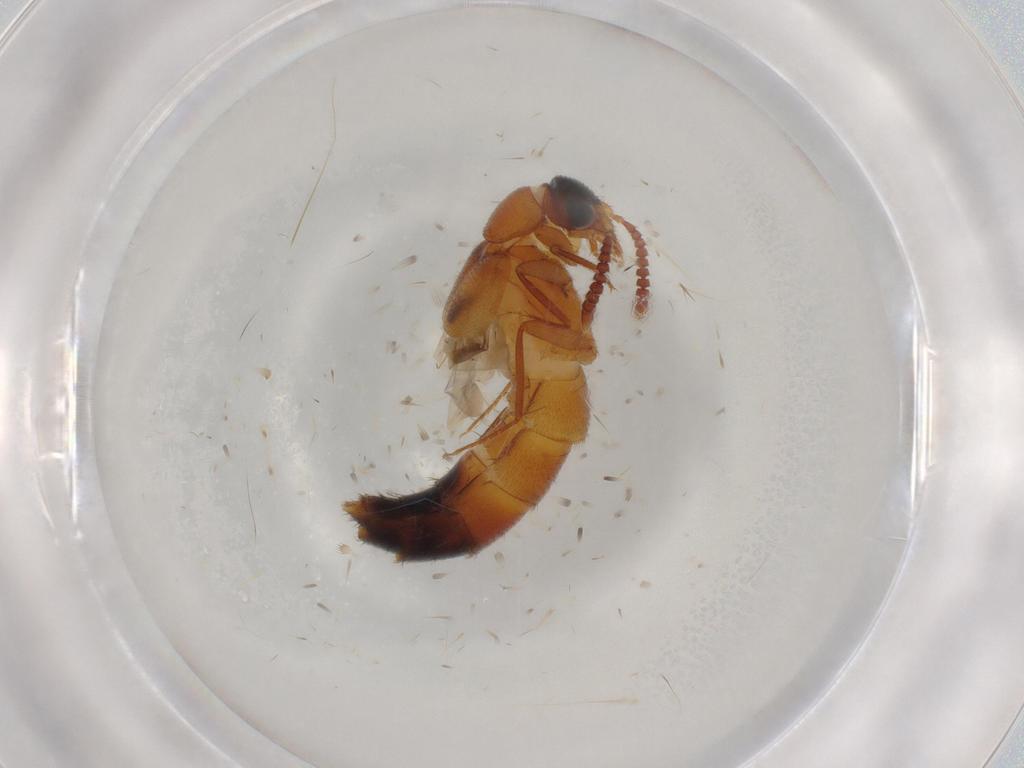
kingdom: Animalia
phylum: Arthropoda
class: Insecta
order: Coleoptera
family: Staphylinidae
